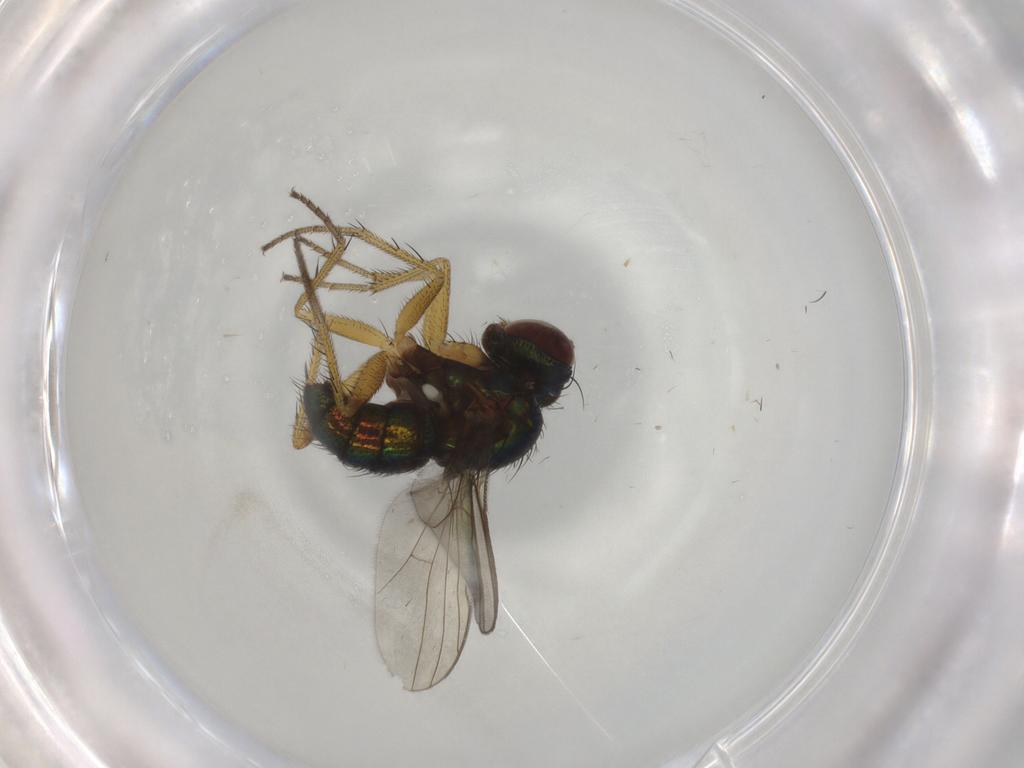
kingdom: Animalia
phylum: Arthropoda
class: Insecta
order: Diptera
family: Dolichopodidae
